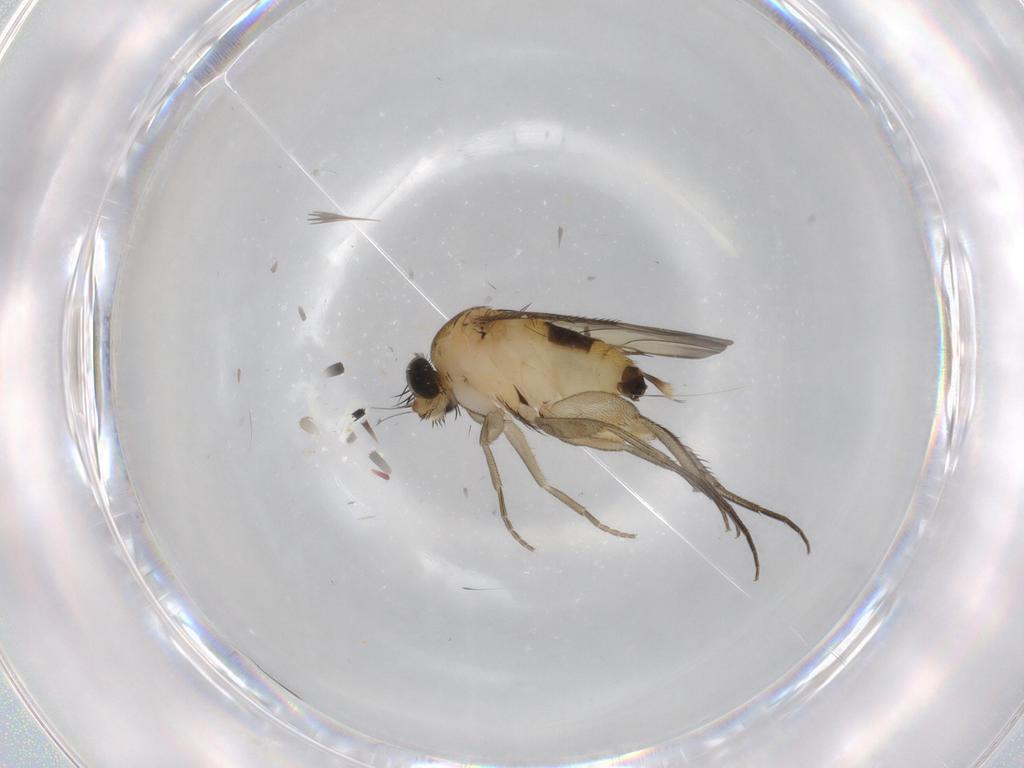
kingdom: Animalia
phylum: Arthropoda
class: Insecta
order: Diptera
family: Phoridae
